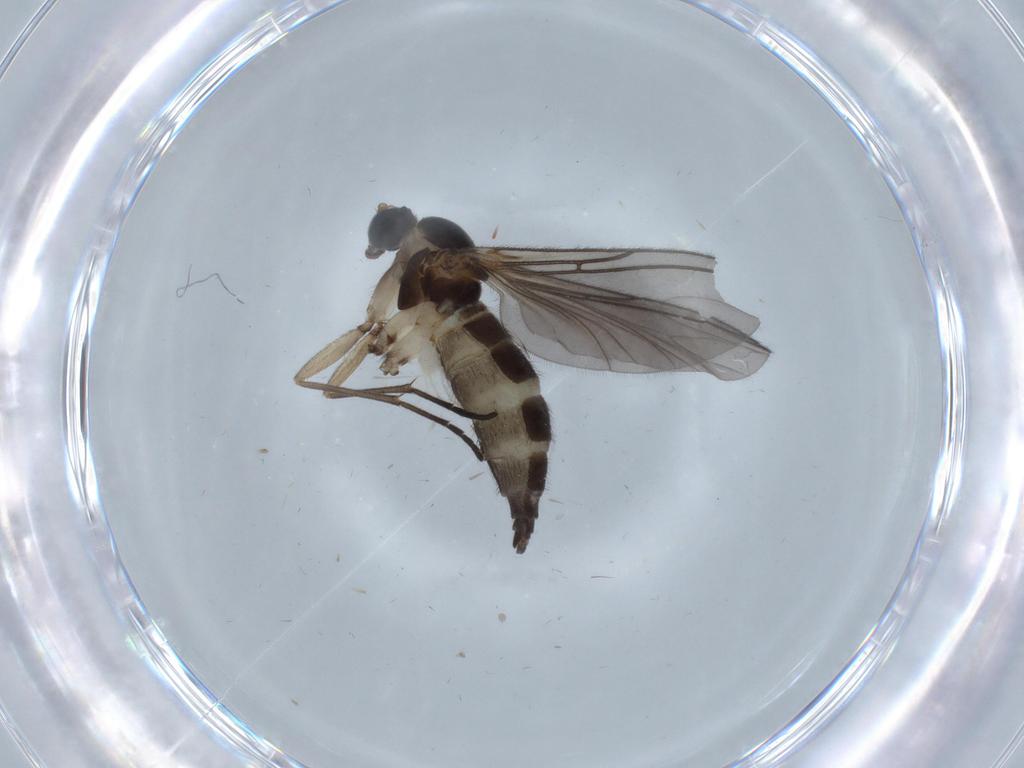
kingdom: Animalia
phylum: Arthropoda
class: Insecta
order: Diptera
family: Sciaridae
